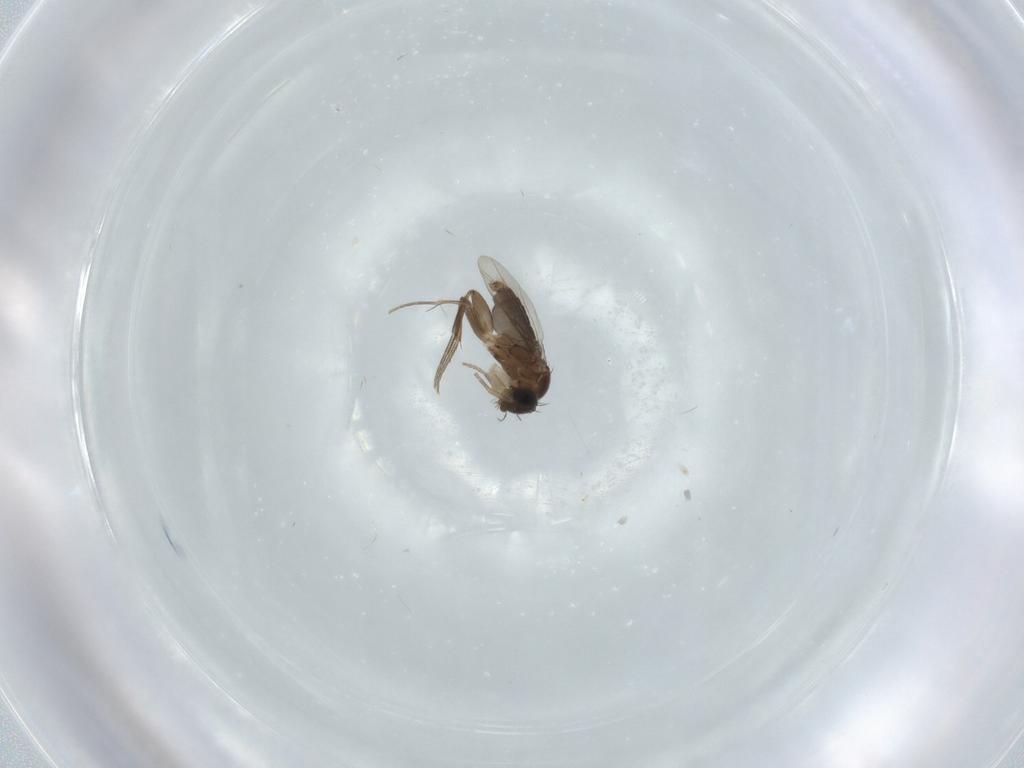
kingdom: Animalia
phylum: Arthropoda
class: Insecta
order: Diptera
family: Phoridae
